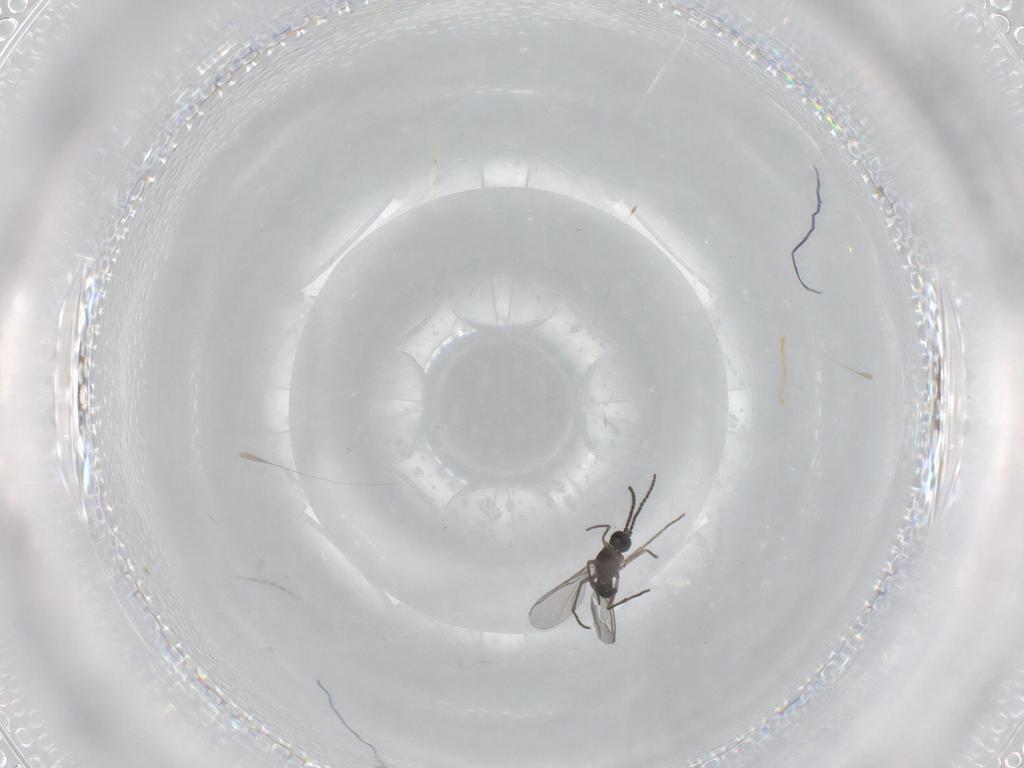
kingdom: Animalia
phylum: Arthropoda
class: Insecta
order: Diptera
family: Cecidomyiidae
